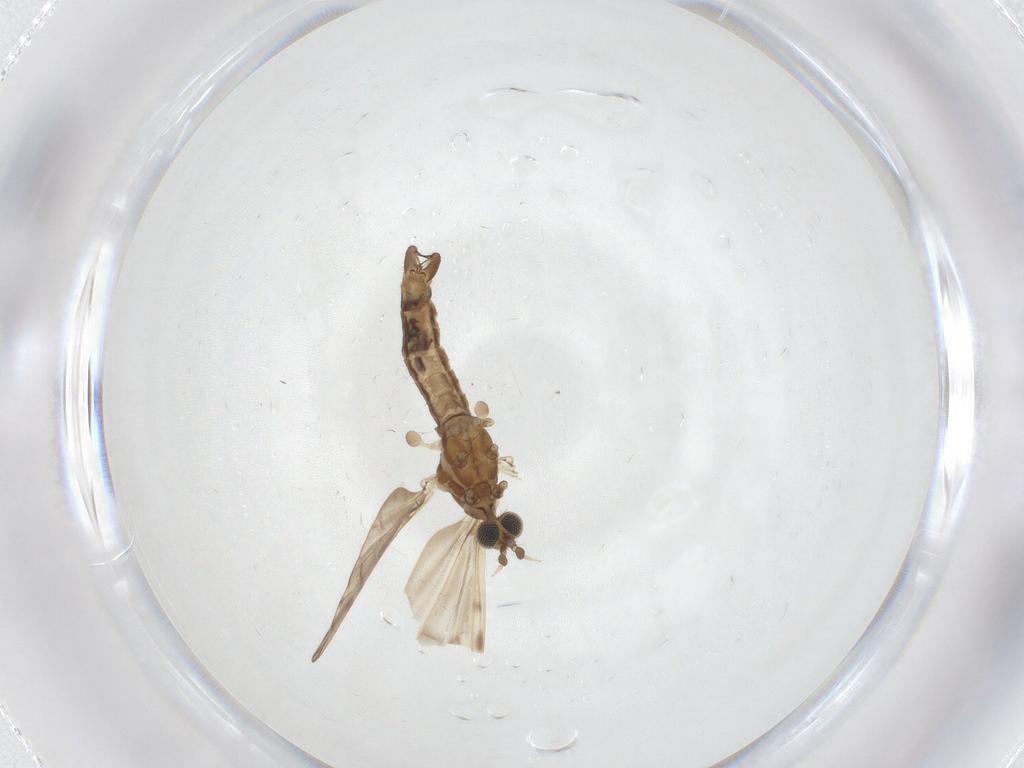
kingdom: Animalia
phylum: Arthropoda
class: Insecta
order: Diptera
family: Limoniidae
